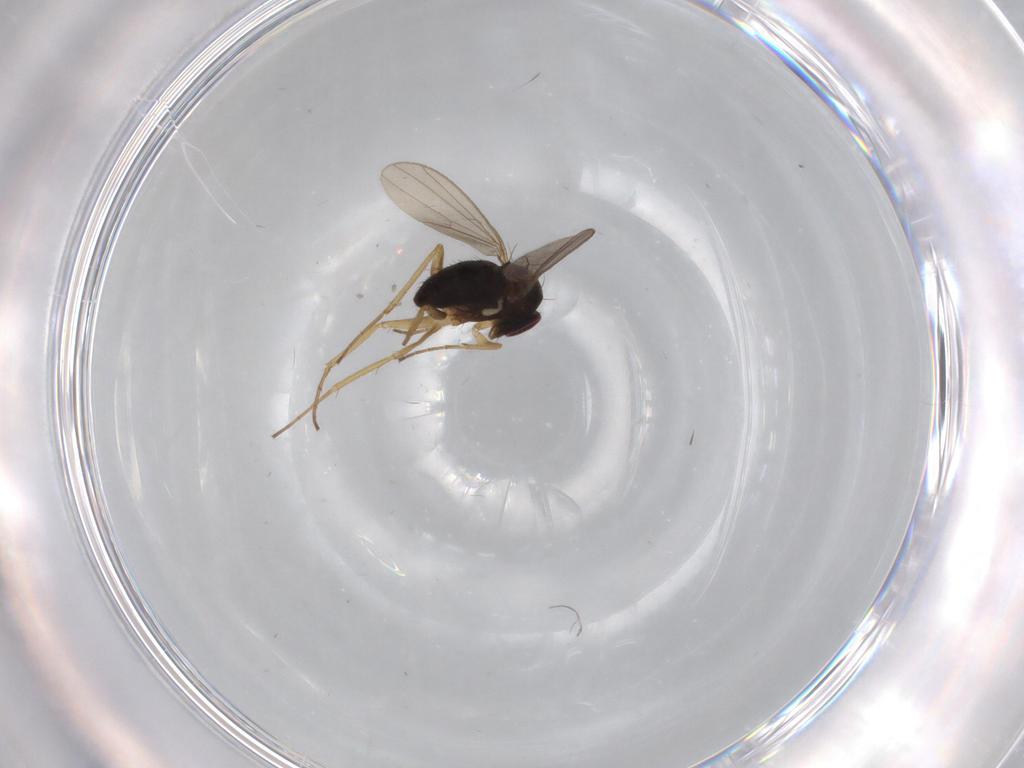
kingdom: Animalia
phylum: Arthropoda
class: Insecta
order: Diptera
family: Dolichopodidae
